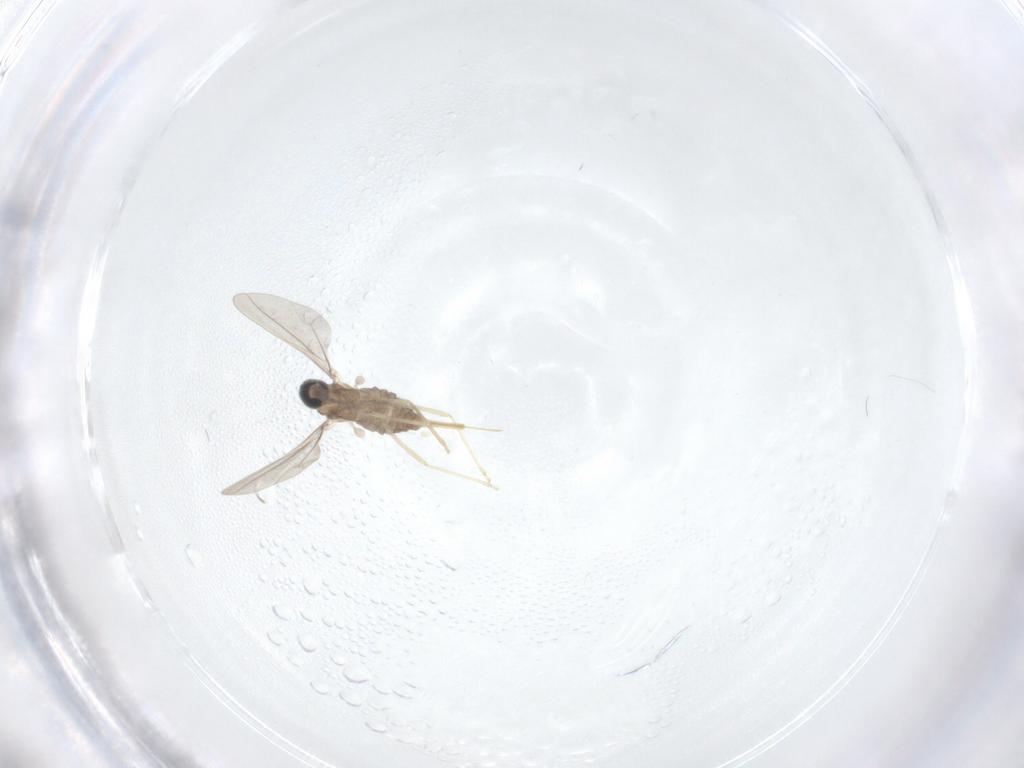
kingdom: Animalia
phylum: Arthropoda
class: Insecta
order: Diptera
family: Cecidomyiidae
